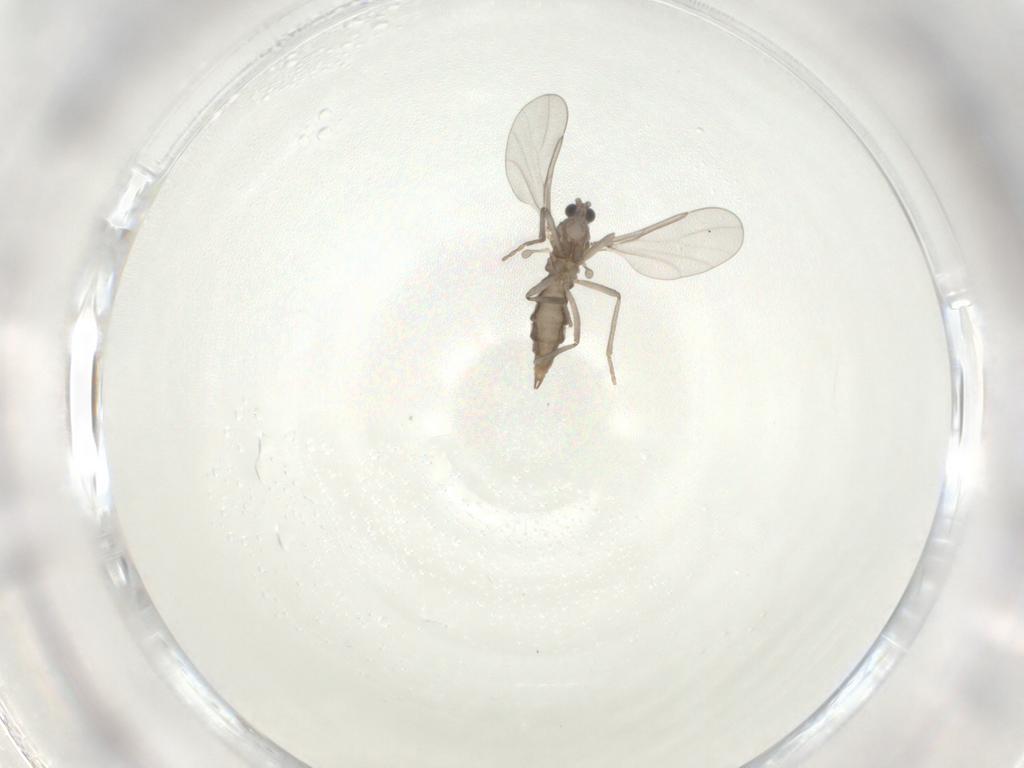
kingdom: Animalia
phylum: Arthropoda
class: Insecta
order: Diptera
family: Cecidomyiidae
